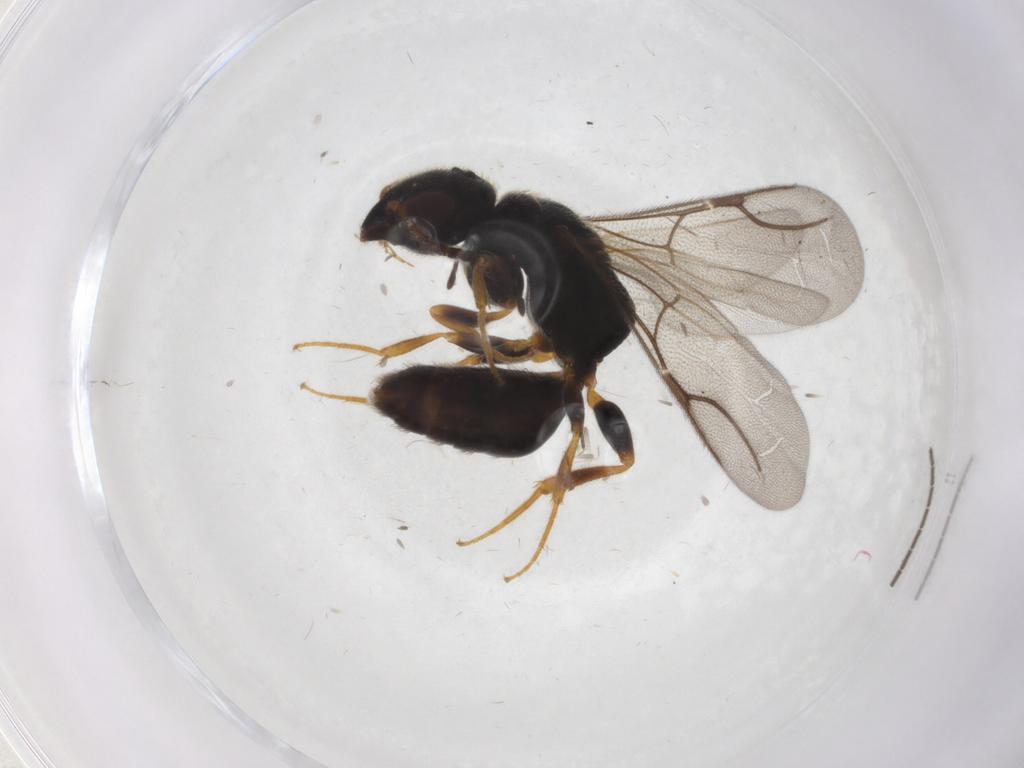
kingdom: Animalia
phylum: Arthropoda
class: Insecta
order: Hymenoptera
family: Bethylidae
